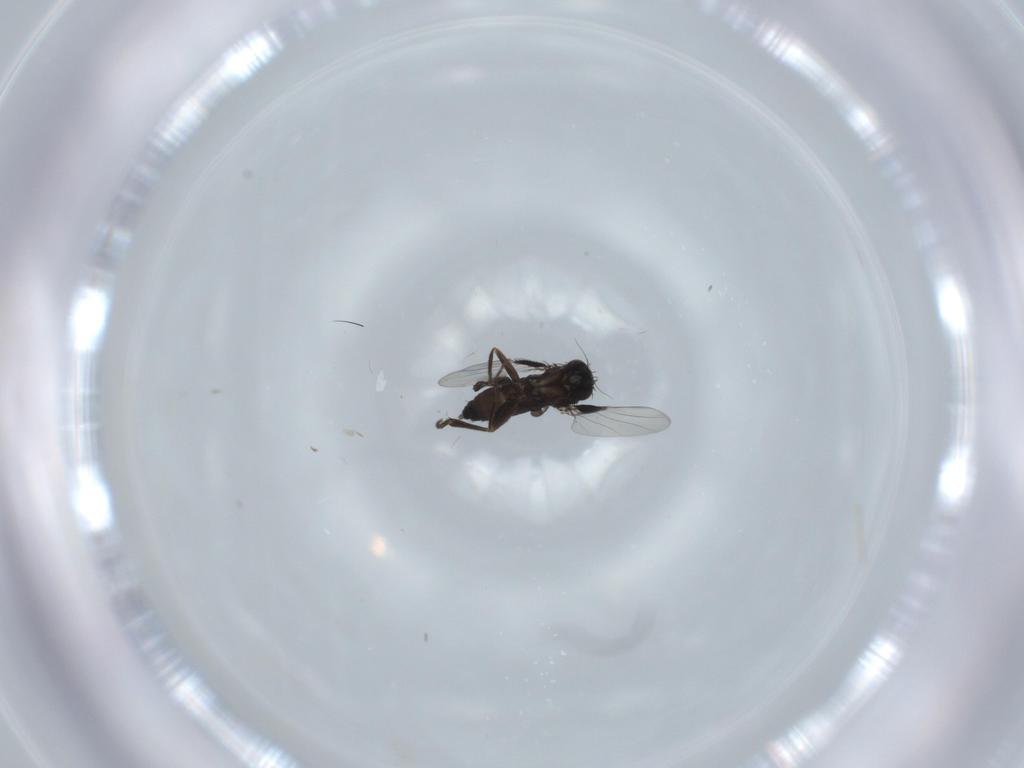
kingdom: Animalia
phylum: Arthropoda
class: Insecta
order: Diptera
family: Phoridae
